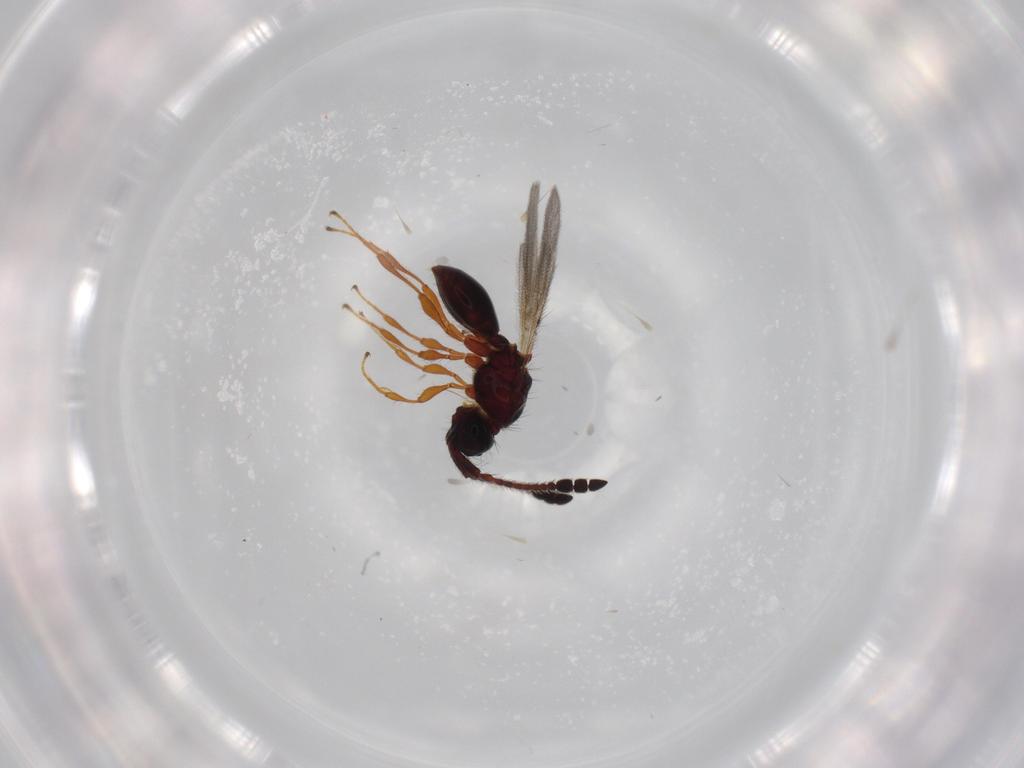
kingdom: Animalia
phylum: Arthropoda
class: Insecta
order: Hymenoptera
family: Diapriidae
